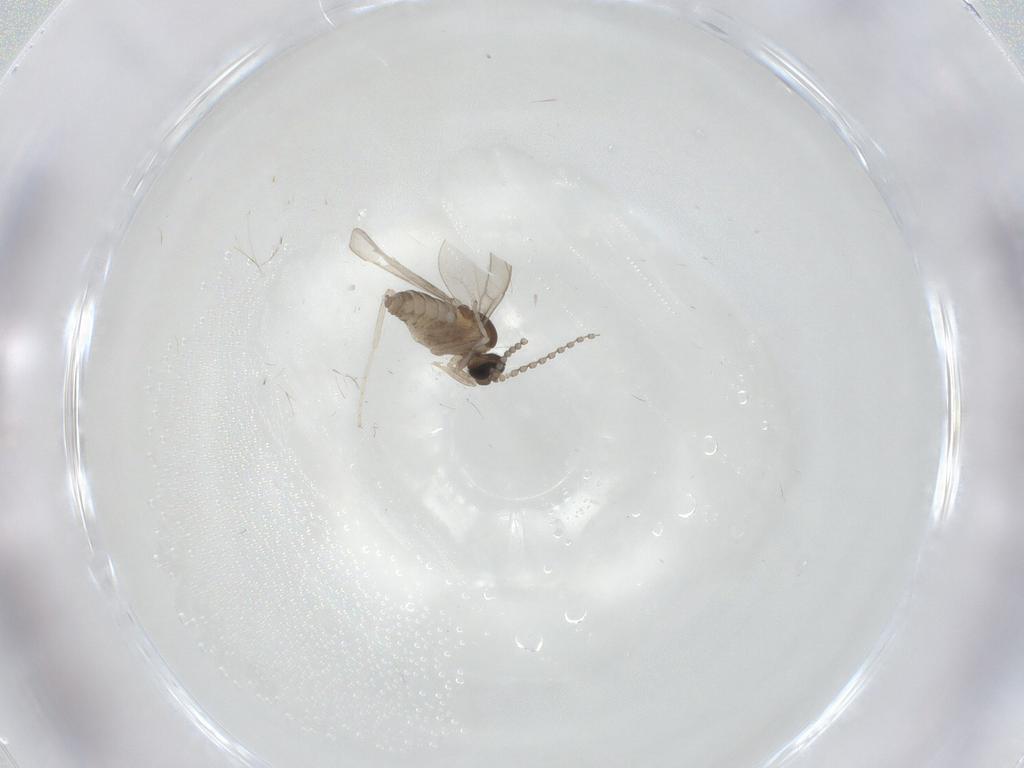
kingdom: Animalia
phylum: Arthropoda
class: Insecta
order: Diptera
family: Cecidomyiidae
